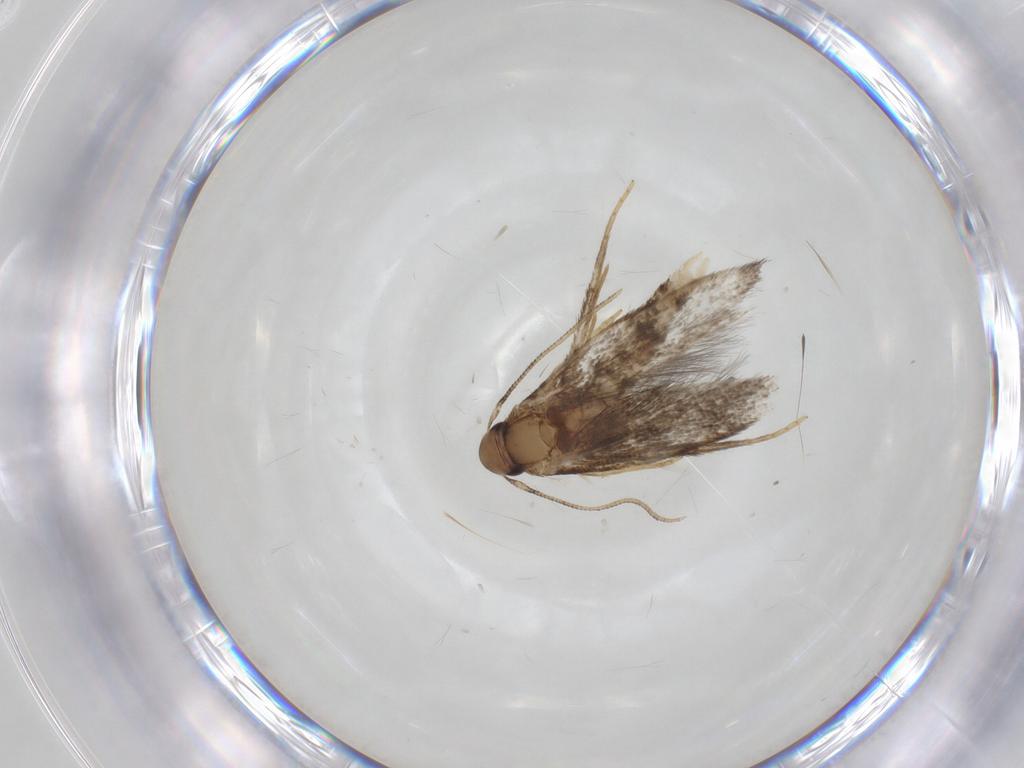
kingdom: Animalia
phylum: Arthropoda
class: Insecta
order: Lepidoptera
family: Gelechiidae
